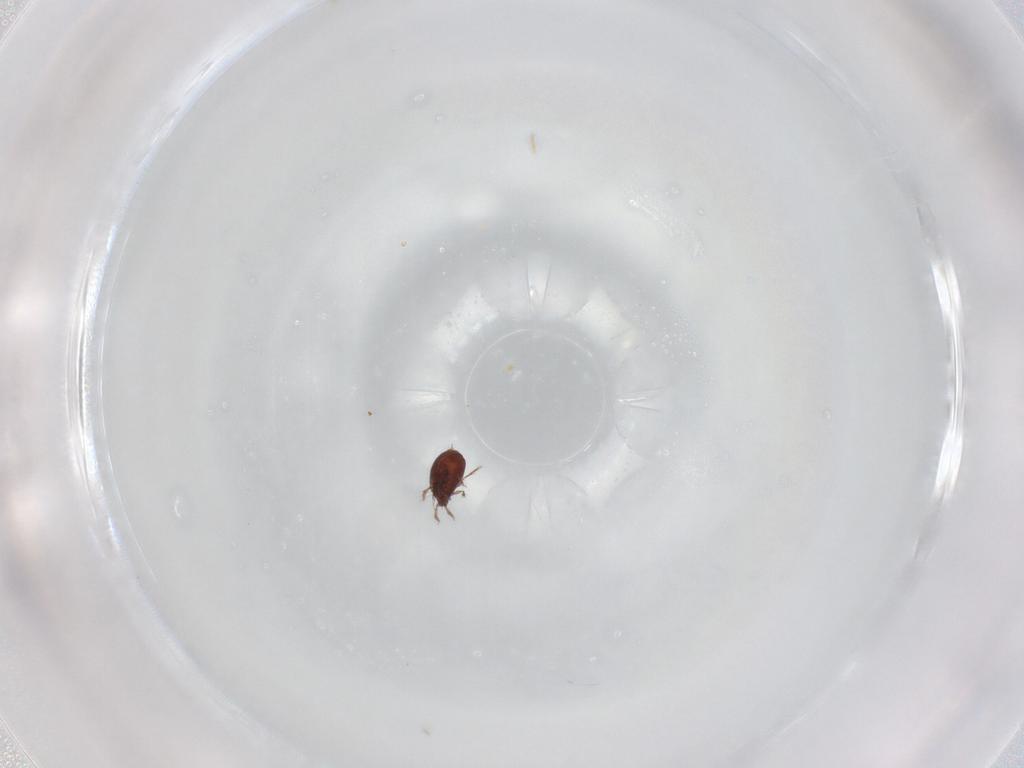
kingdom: Animalia
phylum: Arthropoda
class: Arachnida
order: Sarcoptiformes
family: Ceratozetidae
